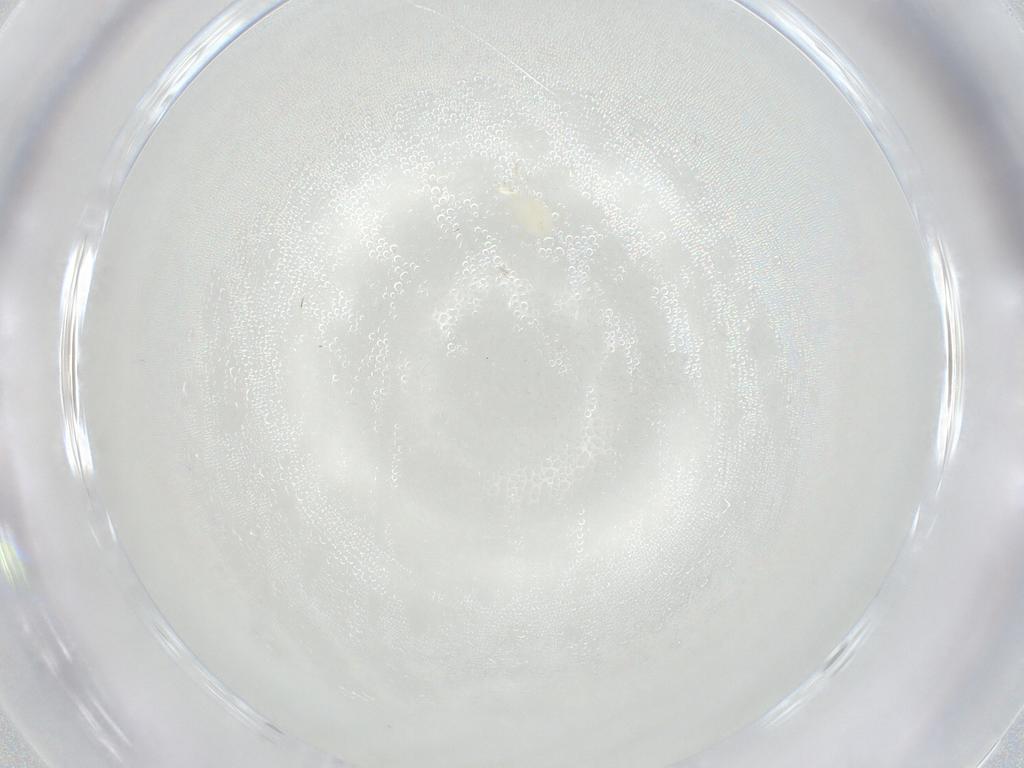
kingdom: Animalia
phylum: Arthropoda
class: Arachnida
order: Mesostigmata
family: Phytoseiidae
